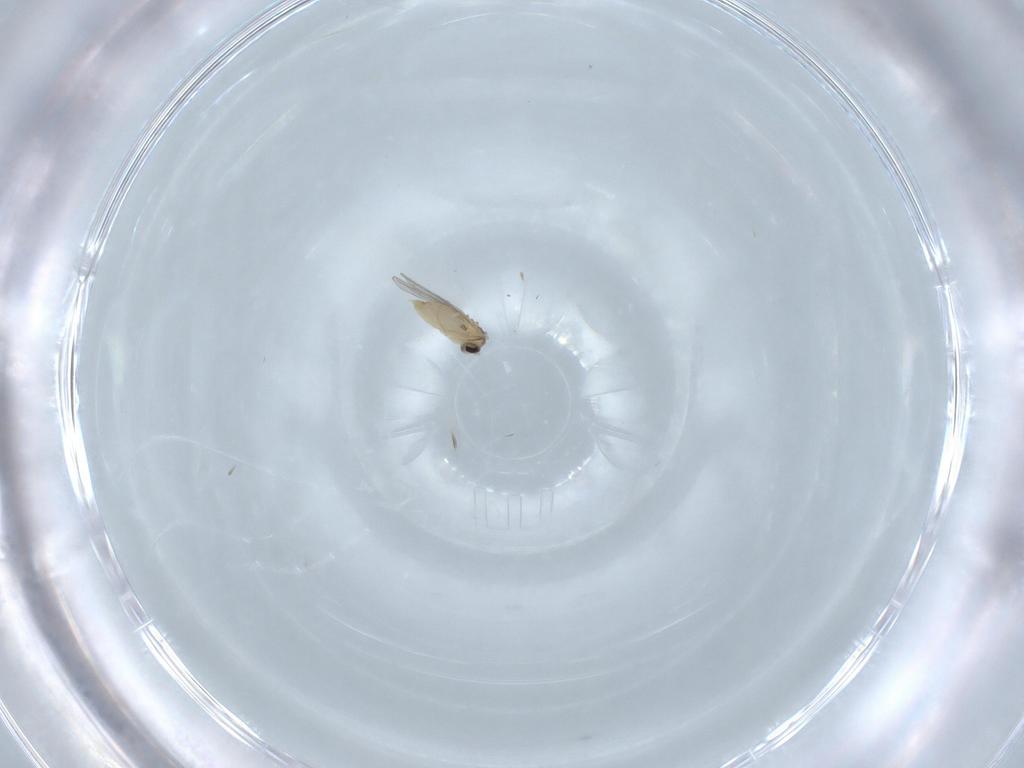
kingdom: Animalia
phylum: Arthropoda
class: Insecta
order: Diptera
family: Cecidomyiidae
